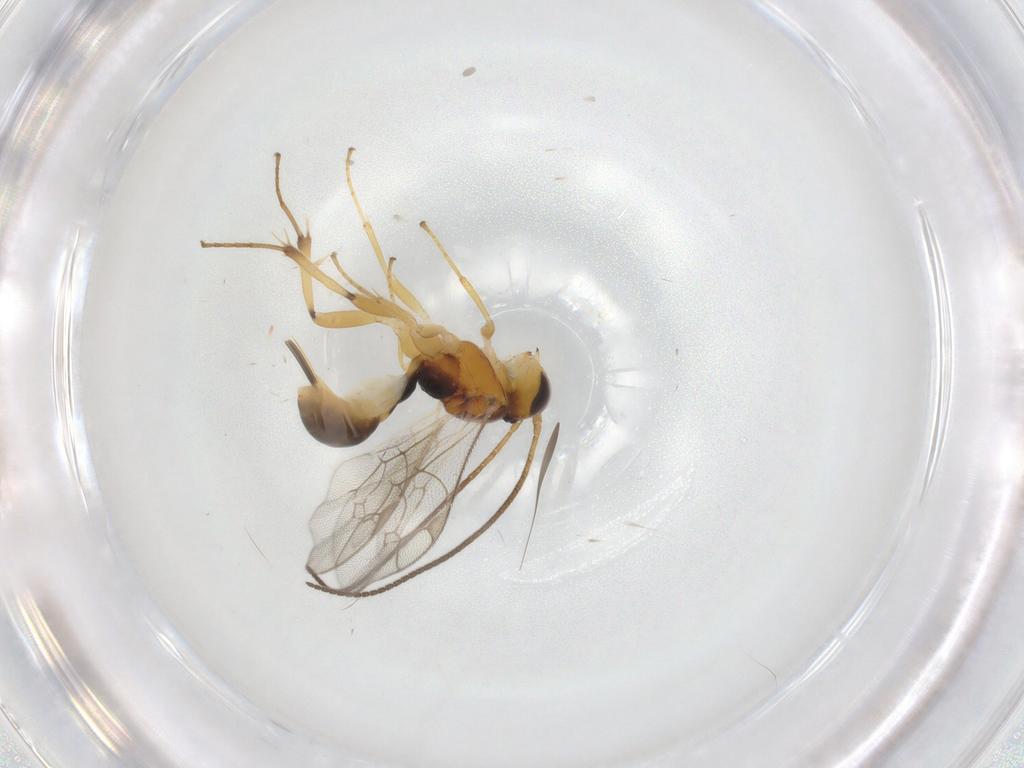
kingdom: Animalia
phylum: Arthropoda
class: Insecta
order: Hymenoptera
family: Ichneumonidae
